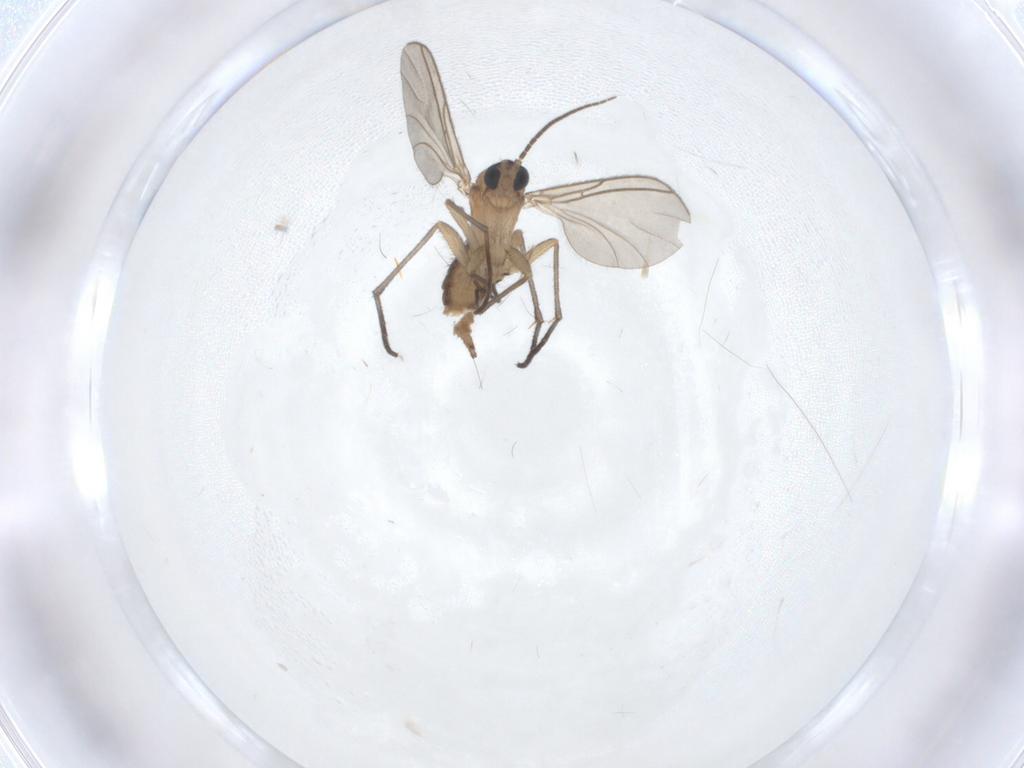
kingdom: Animalia
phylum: Arthropoda
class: Insecta
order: Diptera
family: Sciaridae
